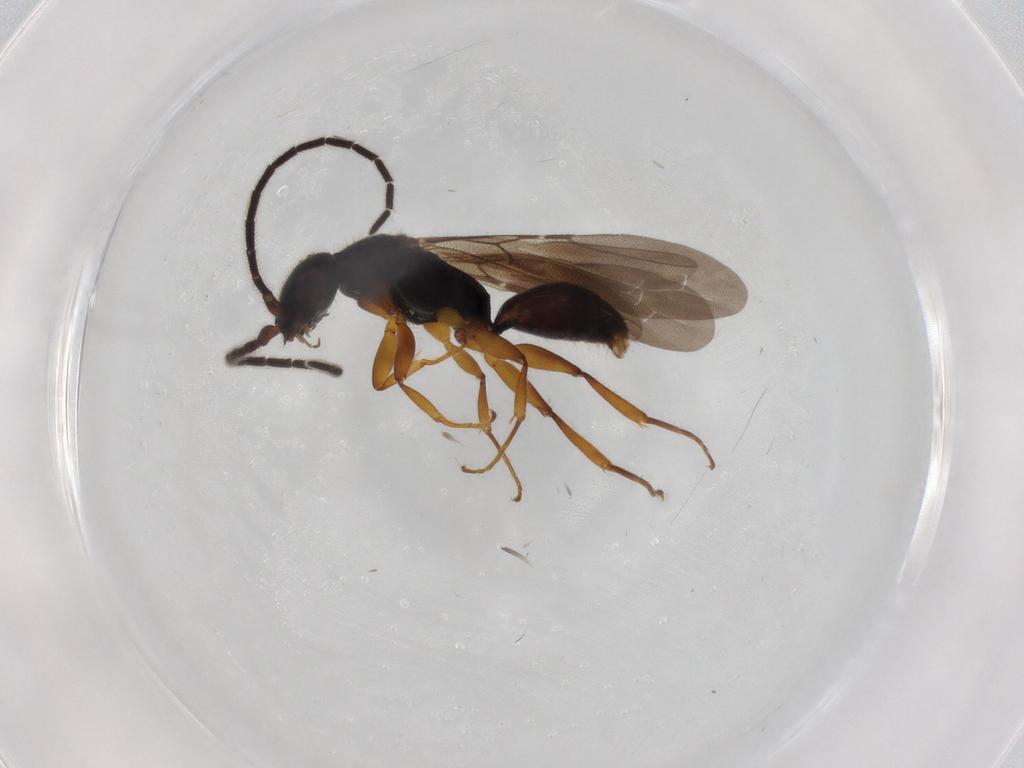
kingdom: Animalia
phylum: Arthropoda
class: Insecta
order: Hymenoptera
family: Bethylidae
